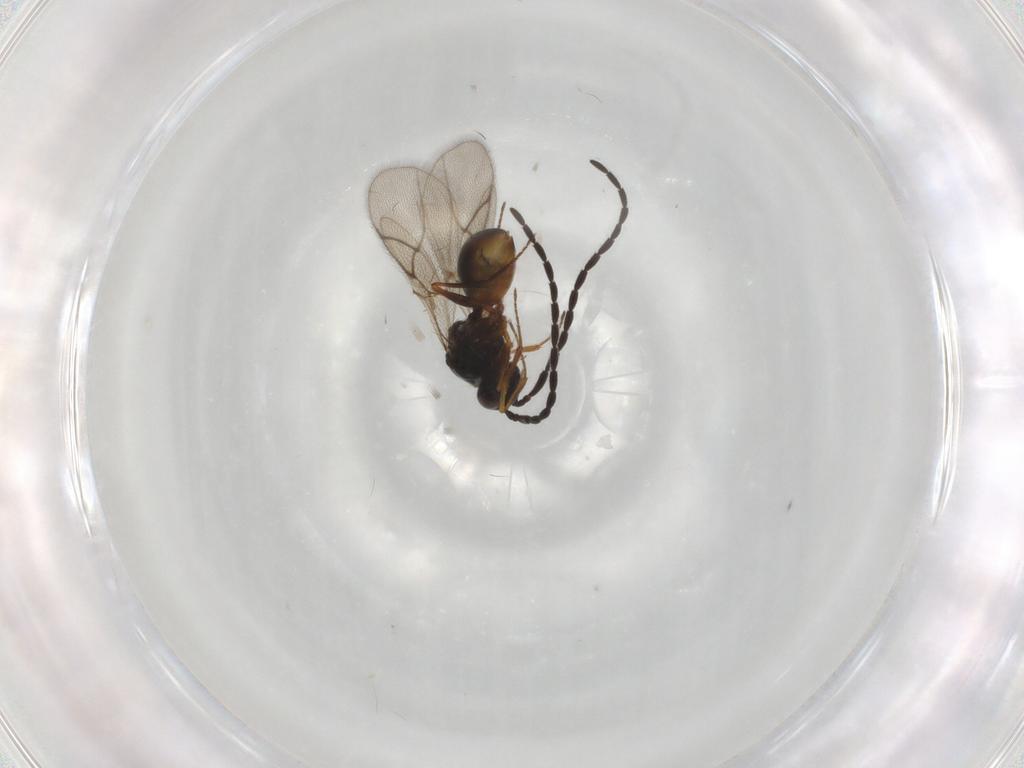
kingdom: Animalia
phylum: Arthropoda
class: Insecta
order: Hymenoptera
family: Figitidae
